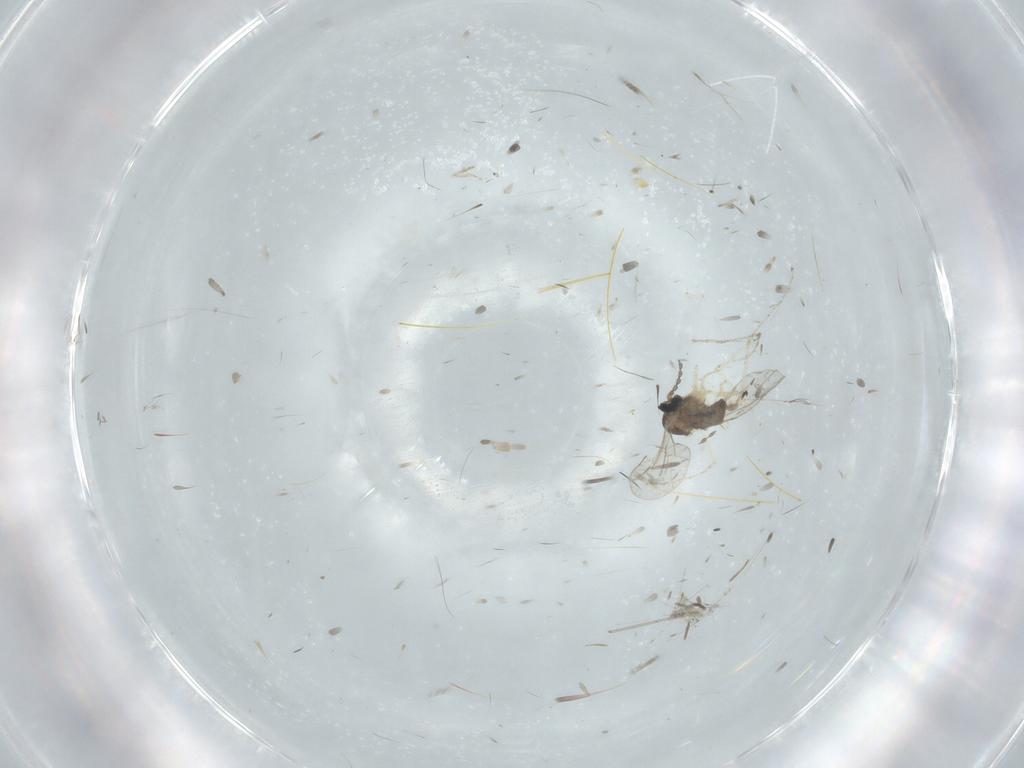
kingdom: Animalia
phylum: Arthropoda
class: Insecta
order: Diptera
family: Cecidomyiidae
